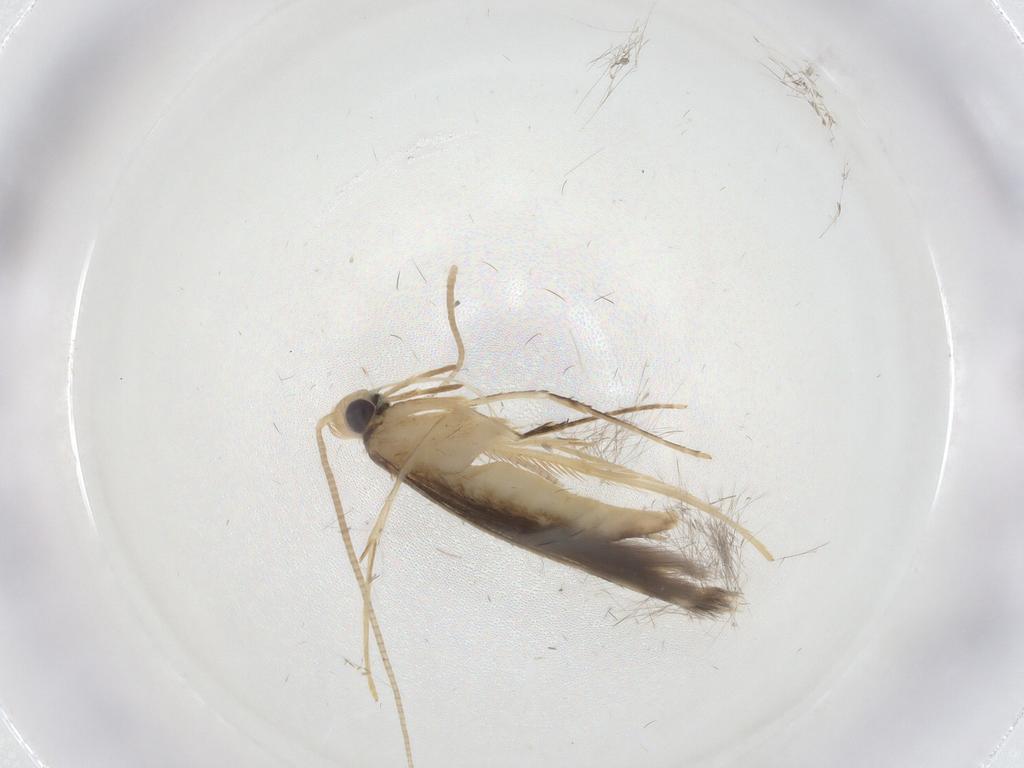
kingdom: Animalia
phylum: Arthropoda
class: Insecta
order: Lepidoptera
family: Gracillariidae
